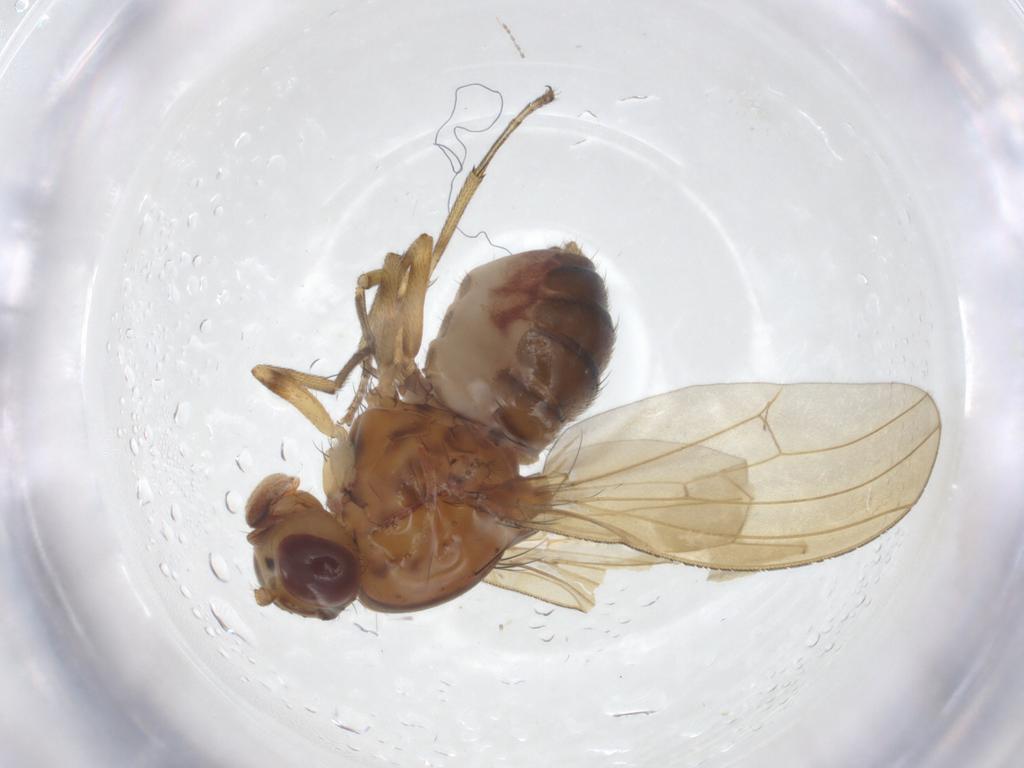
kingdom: Animalia
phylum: Arthropoda
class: Insecta
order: Diptera
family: Lauxaniidae
